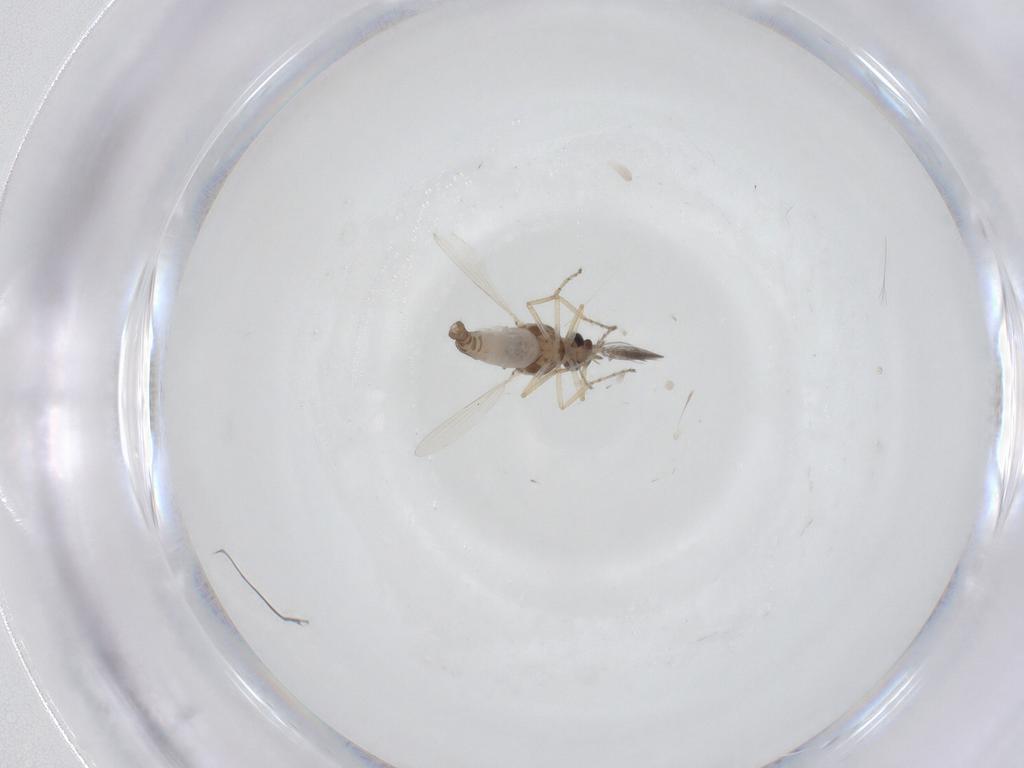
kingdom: Animalia
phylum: Arthropoda
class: Insecta
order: Diptera
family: Ceratopogonidae
